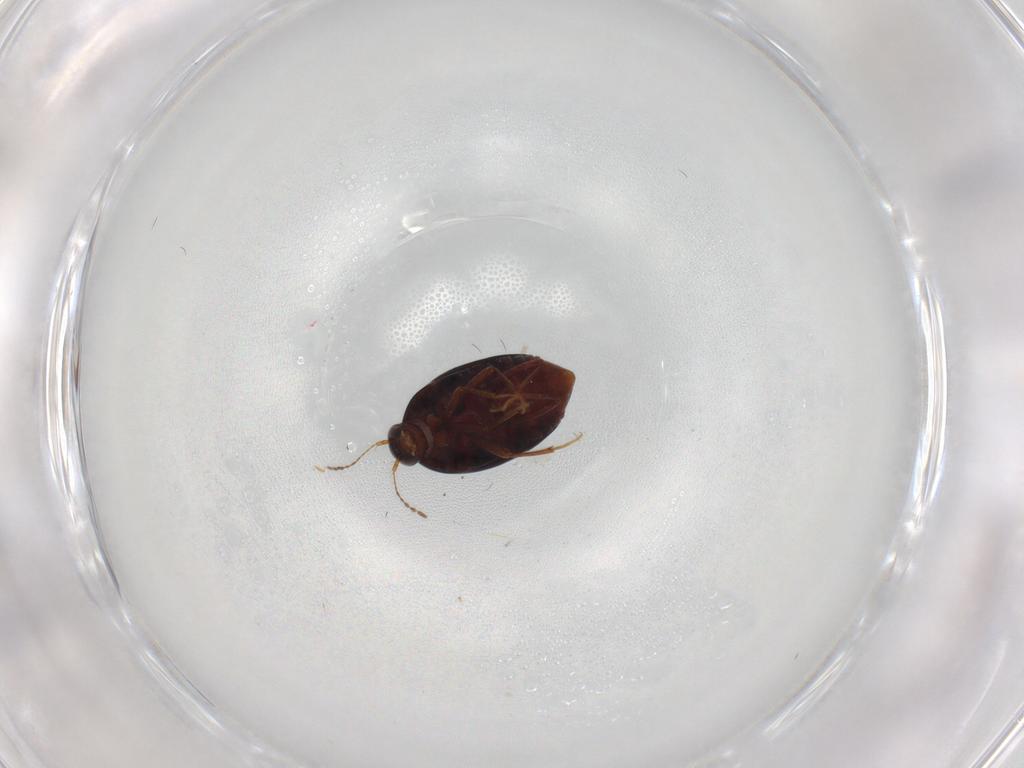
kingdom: Animalia
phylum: Arthropoda
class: Insecta
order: Coleoptera
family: Staphylinidae
